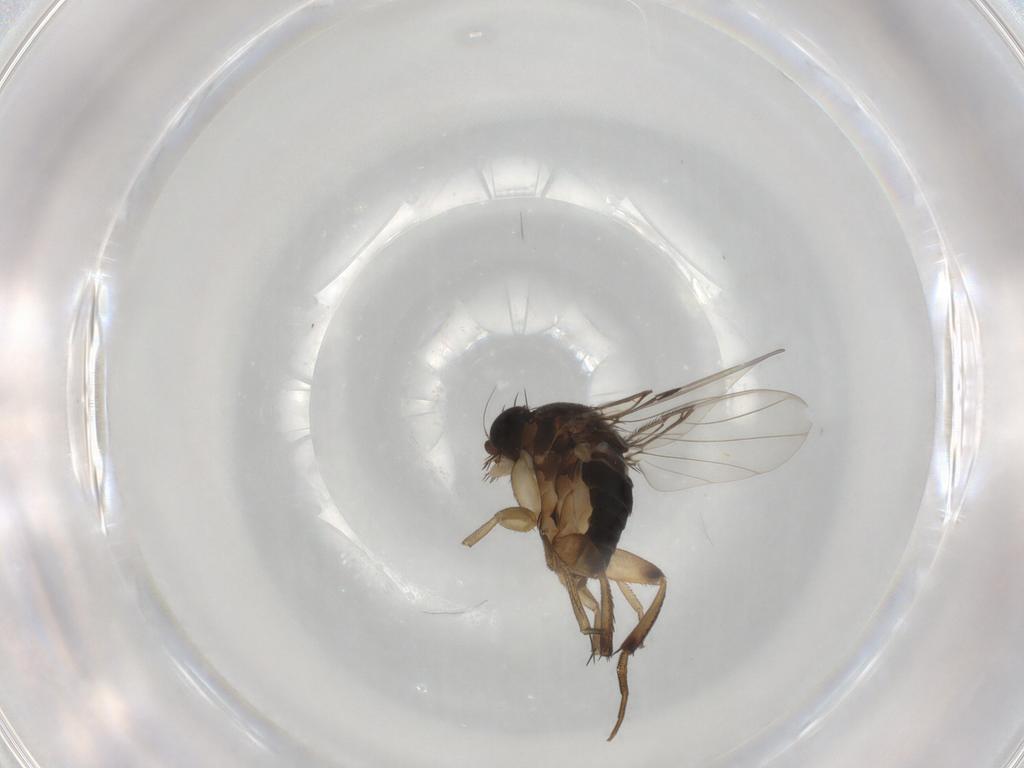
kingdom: Animalia
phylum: Arthropoda
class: Insecta
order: Diptera
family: Phoridae
